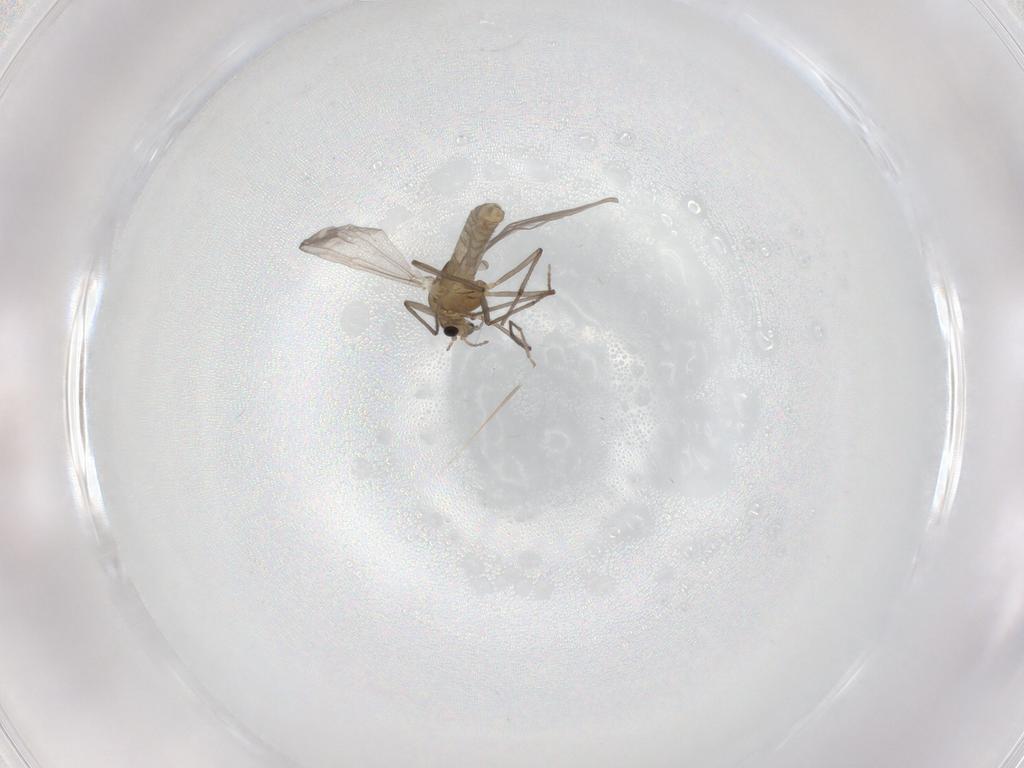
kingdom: Animalia
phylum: Arthropoda
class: Insecta
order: Diptera
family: Chironomidae
